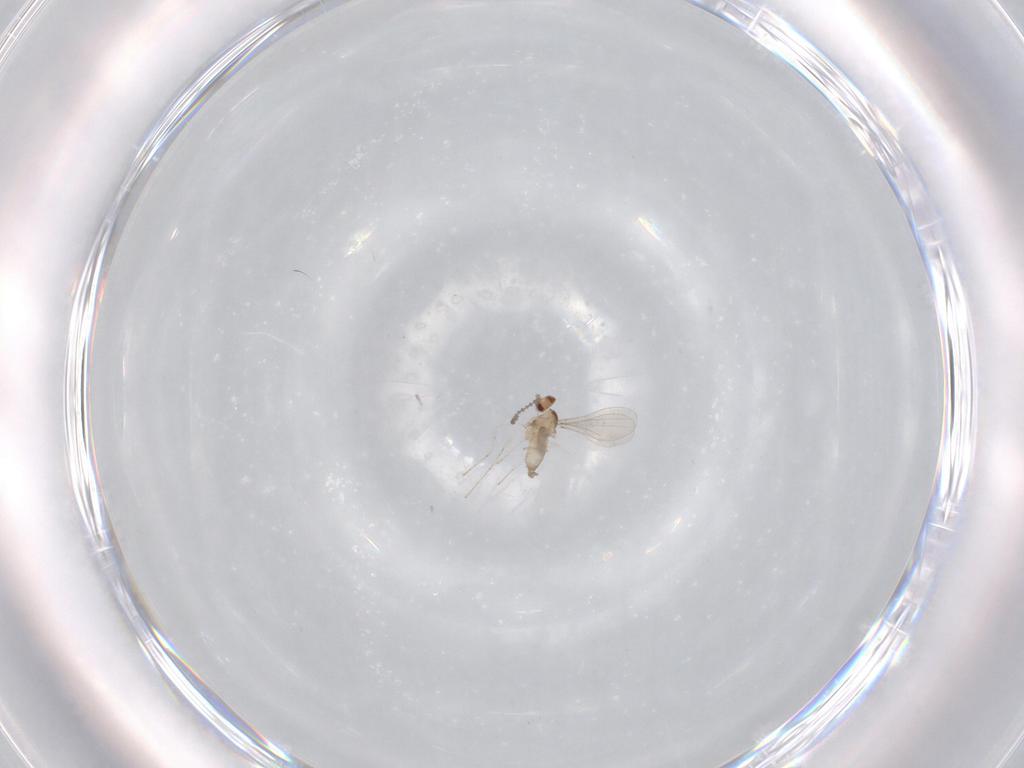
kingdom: Animalia
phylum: Arthropoda
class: Insecta
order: Diptera
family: Cecidomyiidae
